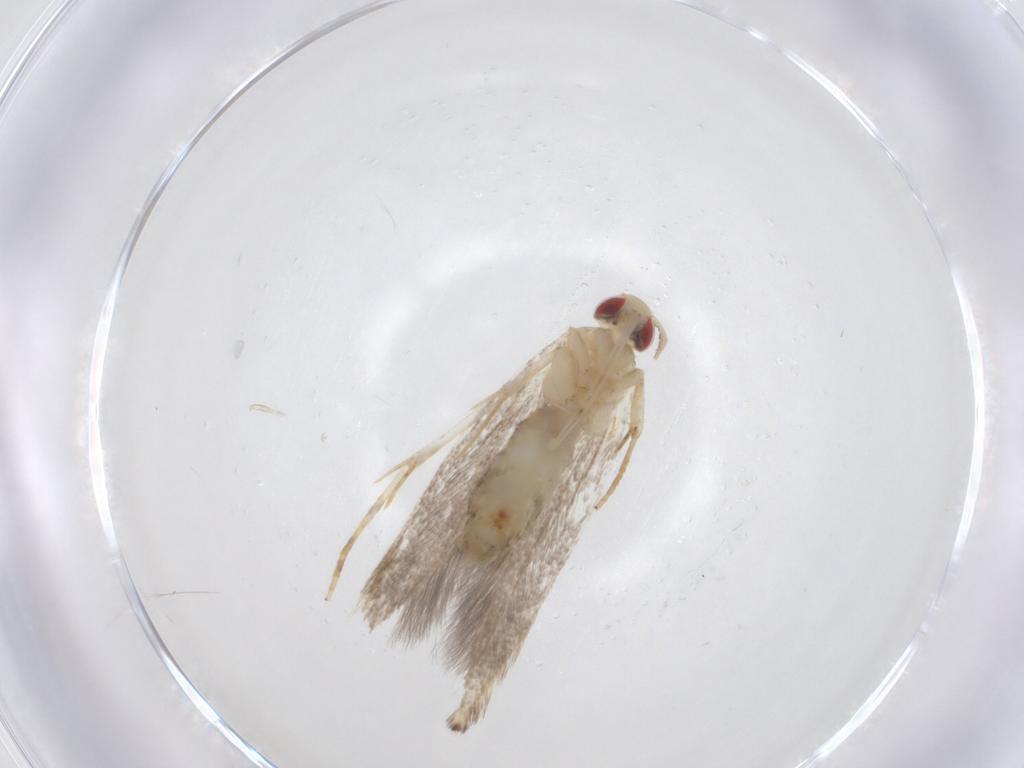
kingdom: Animalia
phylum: Arthropoda
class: Insecta
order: Lepidoptera
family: Cosmopterigidae
